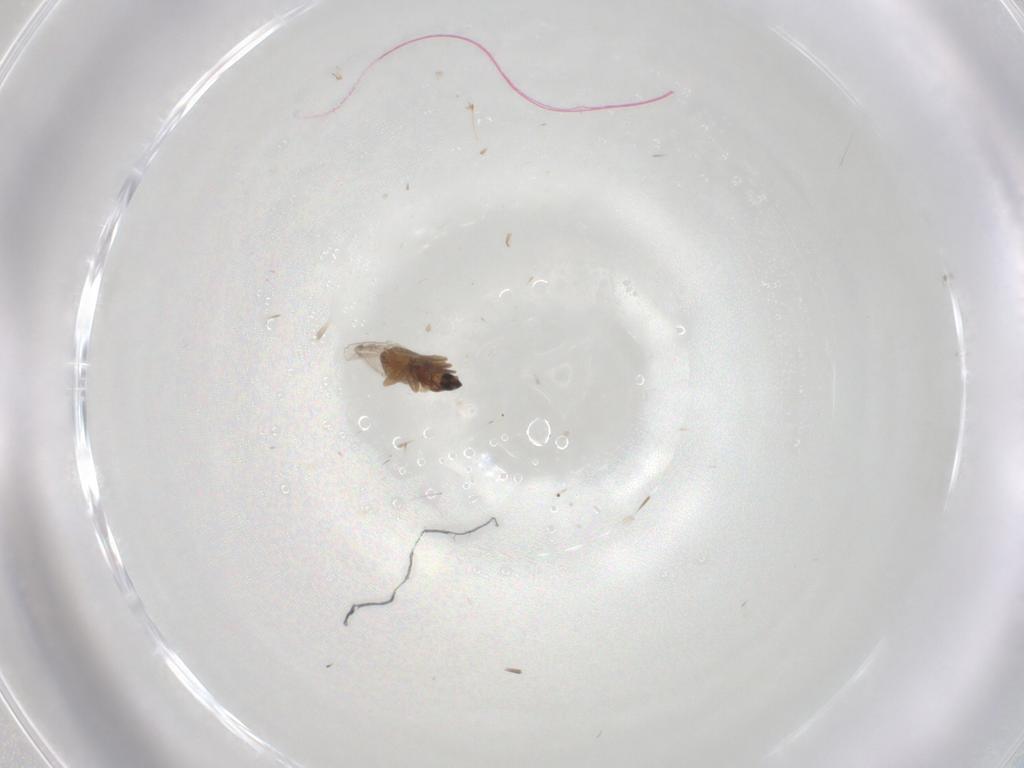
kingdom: Animalia
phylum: Arthropoda
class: Insecta
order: Diptera
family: Cecidomyiidae
